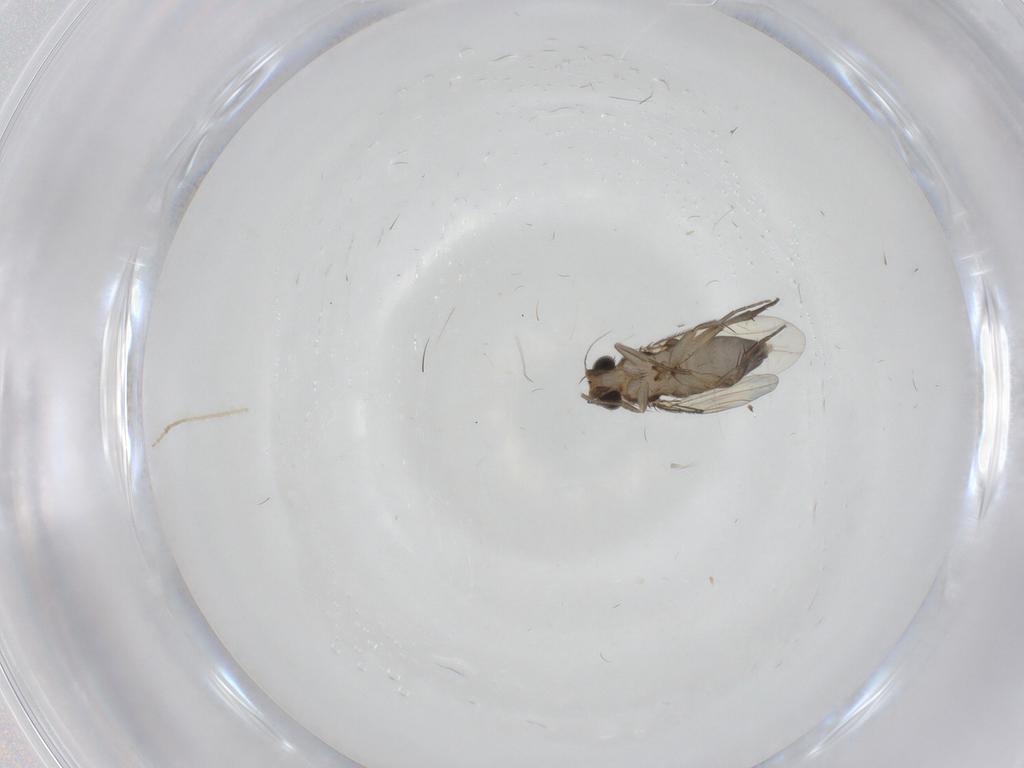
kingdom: Animalia
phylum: Arthropoda
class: Insecta
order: Diptera
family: Phoridae
